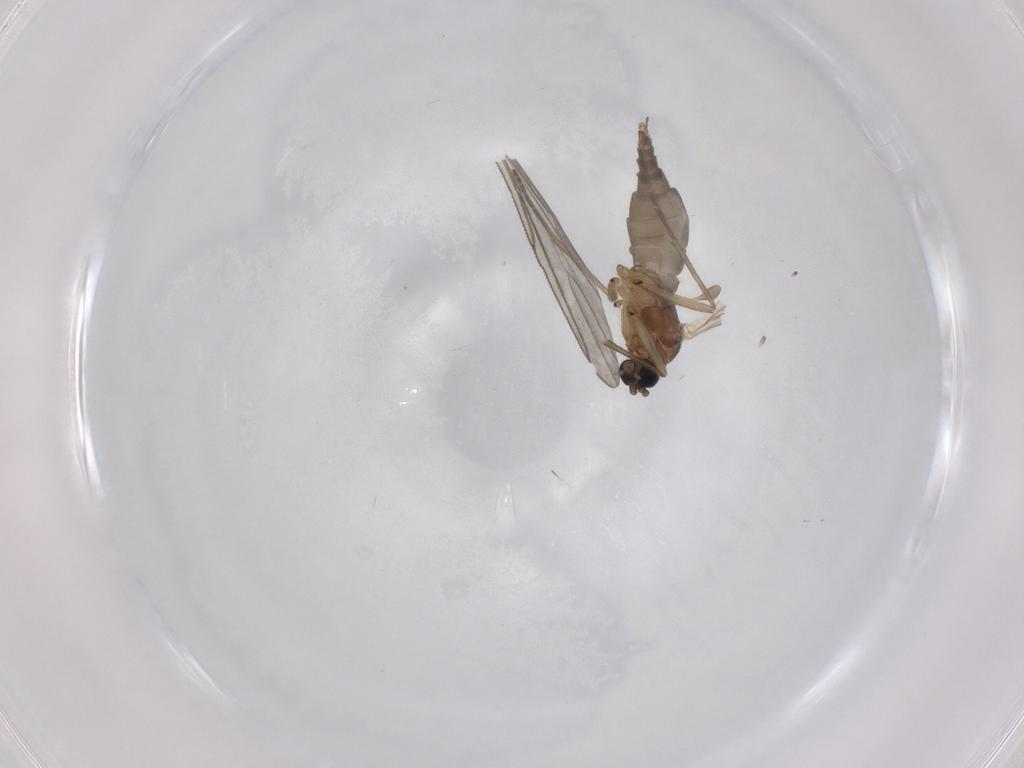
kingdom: Animalia
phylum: Arthropoda
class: Insecta
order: Diptera
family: Sciaridae
